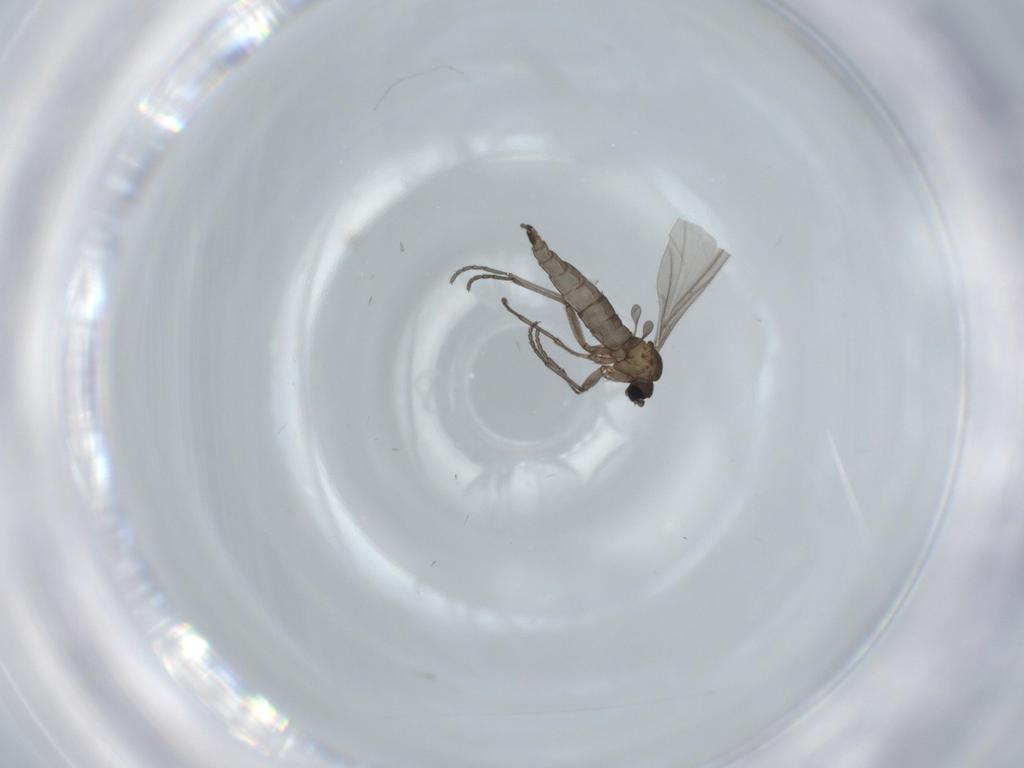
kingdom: Animalia
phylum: Arthropoda
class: Insecta
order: Diptera
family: Sciaridae
